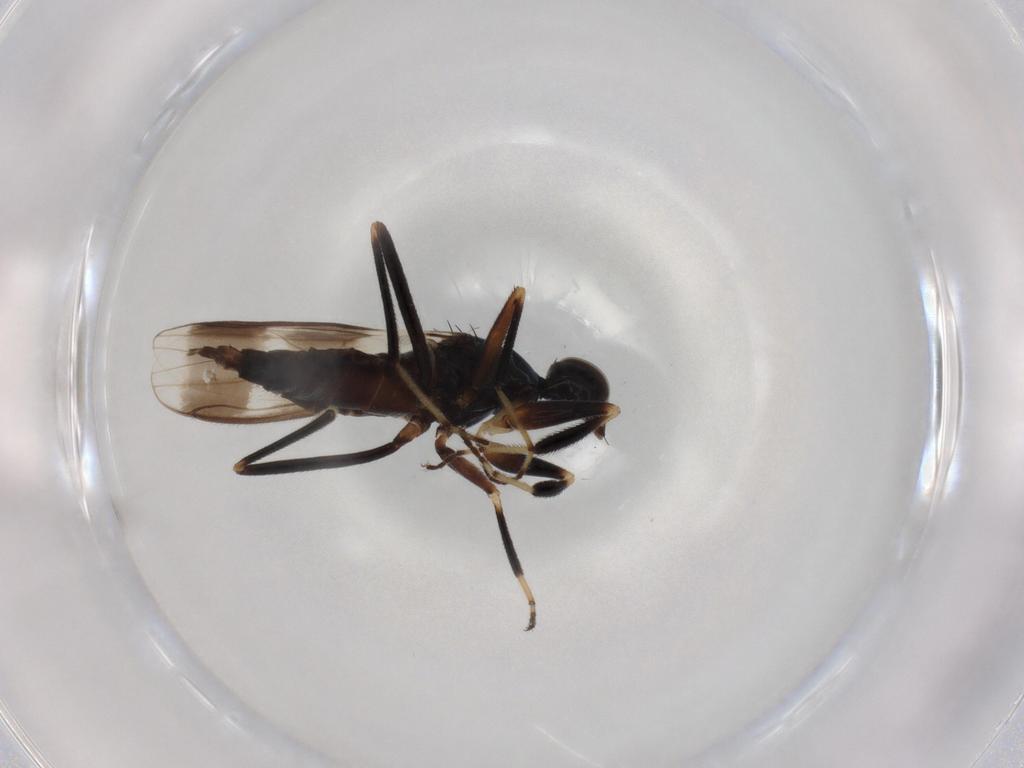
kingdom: Animalia
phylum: Arthropoda
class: Insecta
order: Diptera
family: Hybotidae
